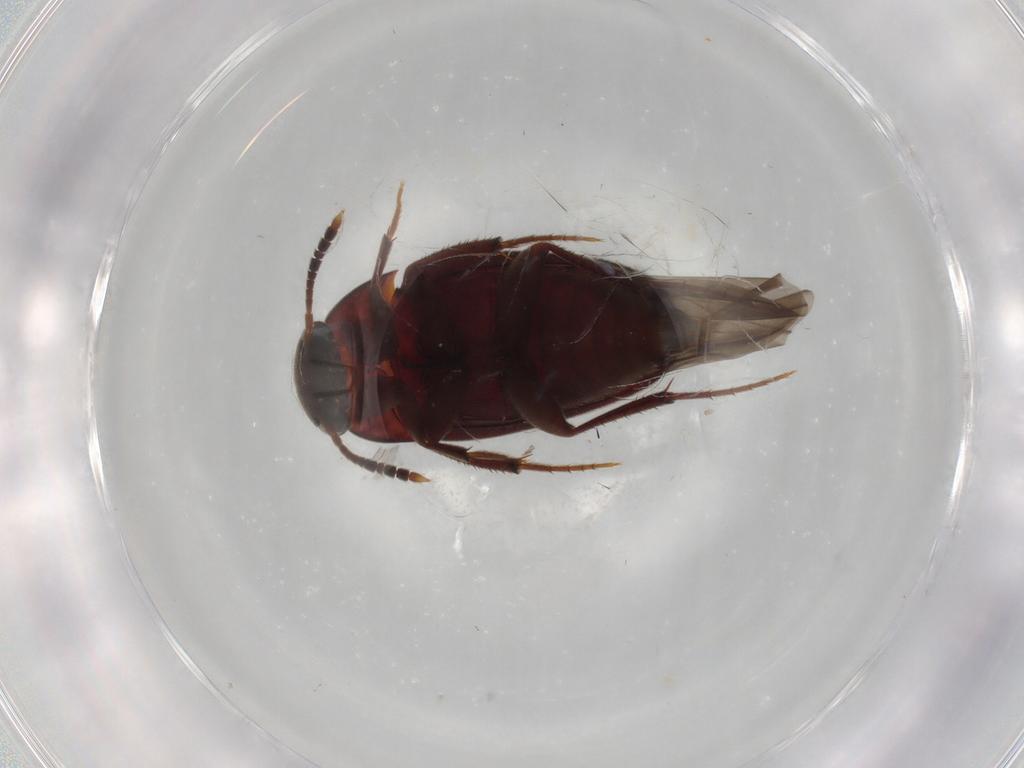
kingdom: Animalia
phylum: Arthropoda
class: Insecta
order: Coleoptera
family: Leiodidae
